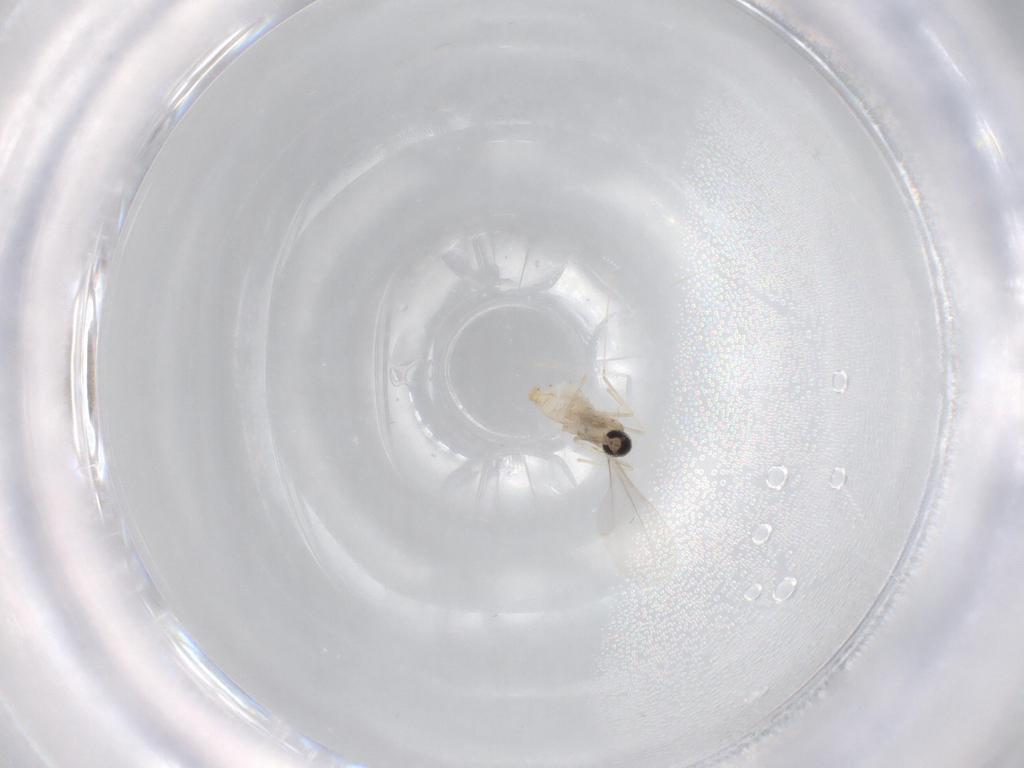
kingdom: Animalia
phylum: Arthropoda
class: Insecta
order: Diptera
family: Cecidomyiidae
